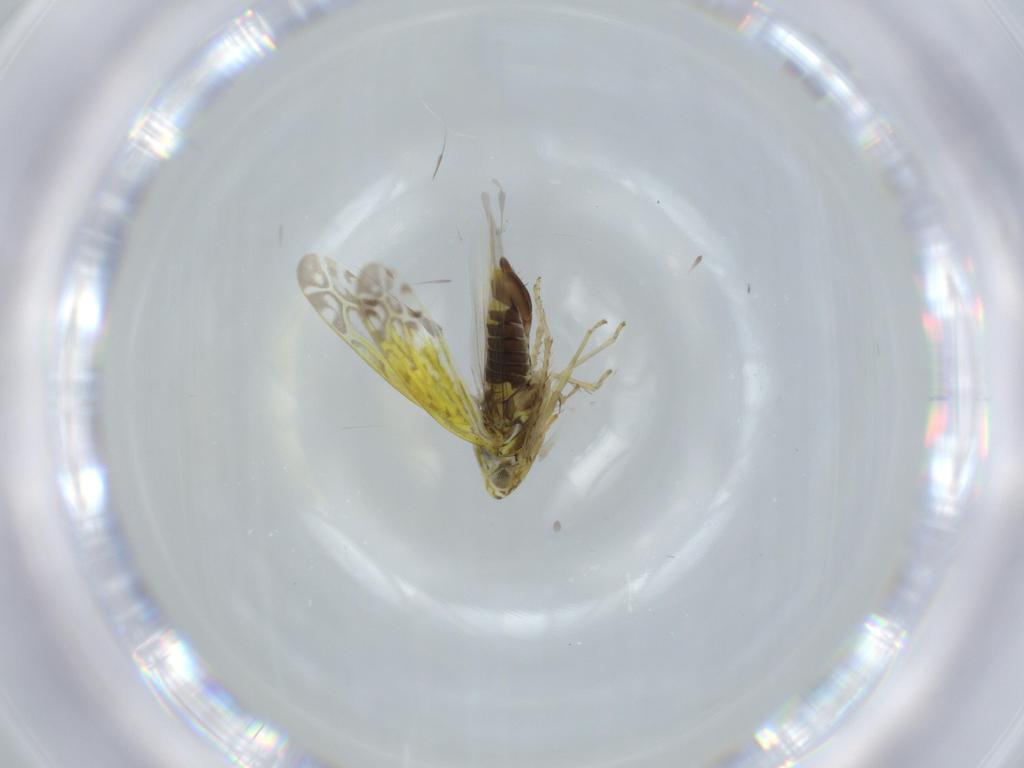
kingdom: Animalia
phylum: Arthropoda
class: Insecta
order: Hemiptera
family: Cicadellidae
